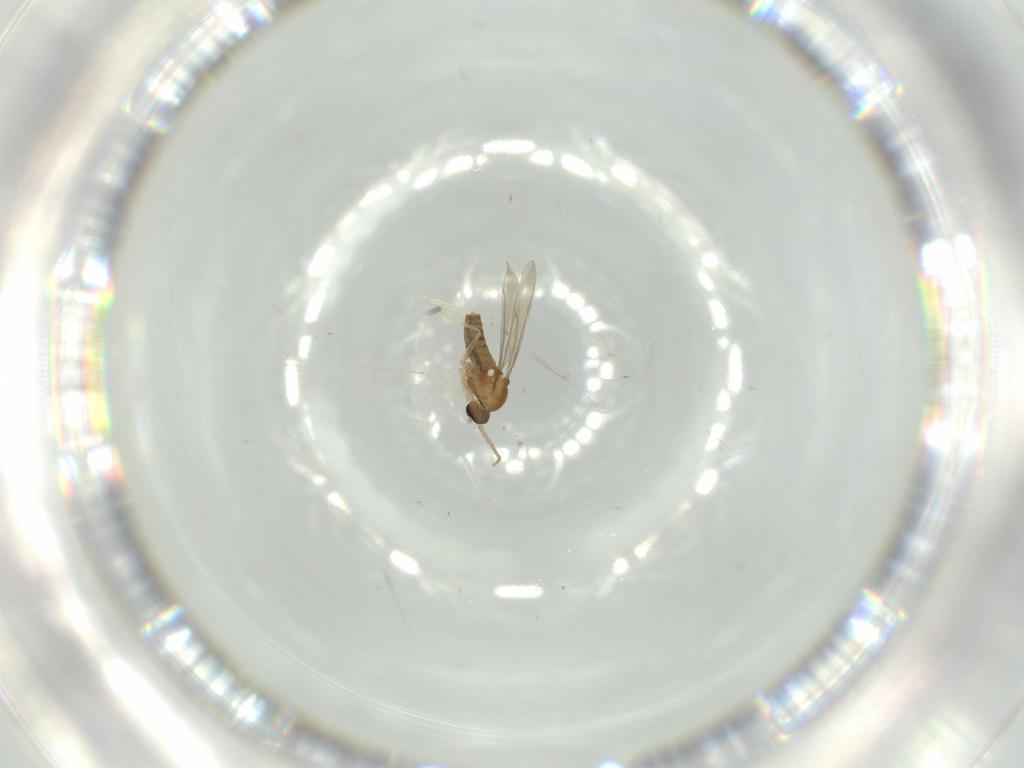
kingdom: Animalia
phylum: Arthropoda
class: Insecta
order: Diptera
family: Cecidomyiidae
